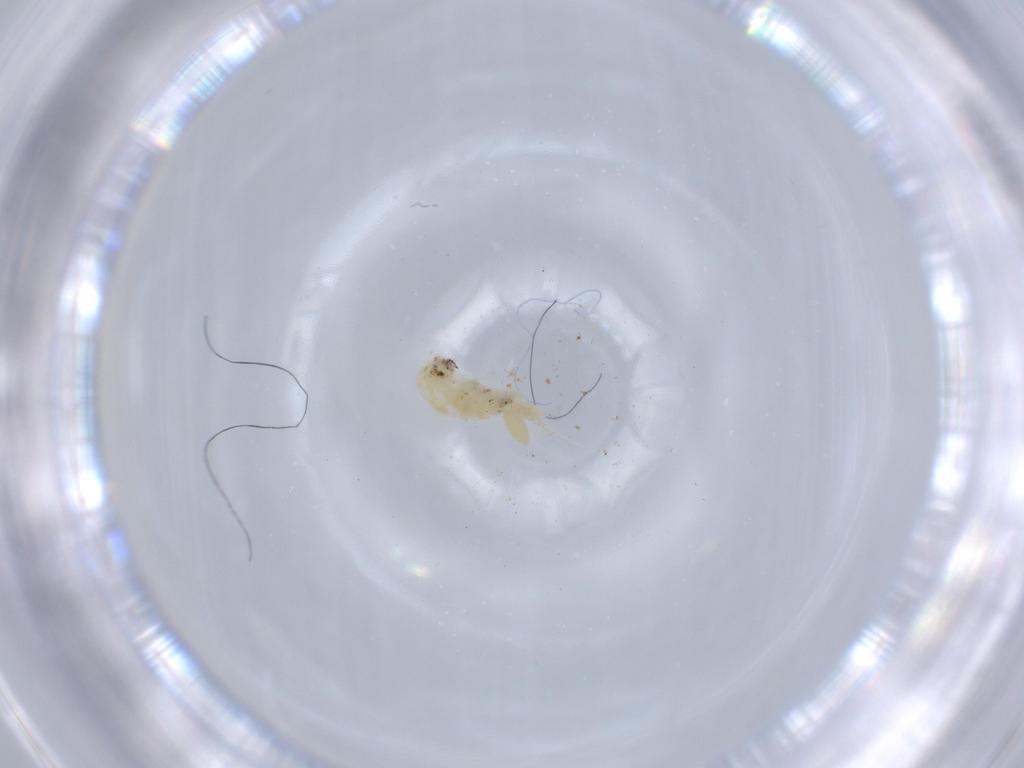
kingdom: Animalia
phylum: Arthropoda
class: Copepoda
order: Cyclopoida
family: Cyclopidae
